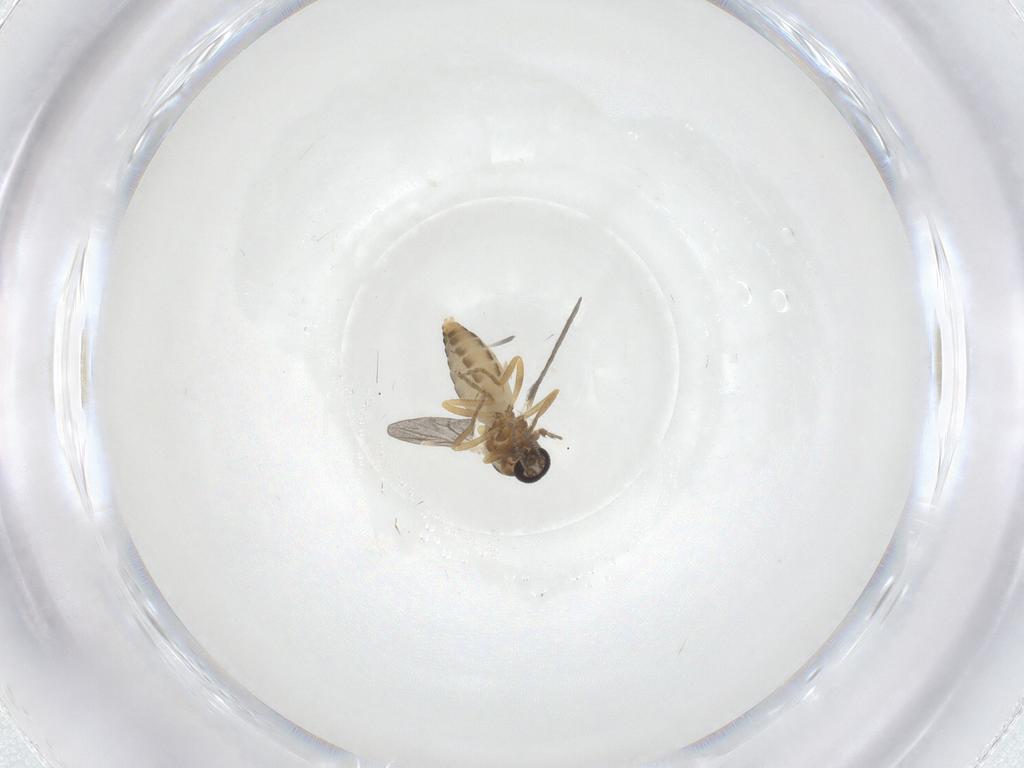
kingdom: Animalia
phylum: Arthropoda
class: Insecta
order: Diptera
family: Ceratopogonidae
